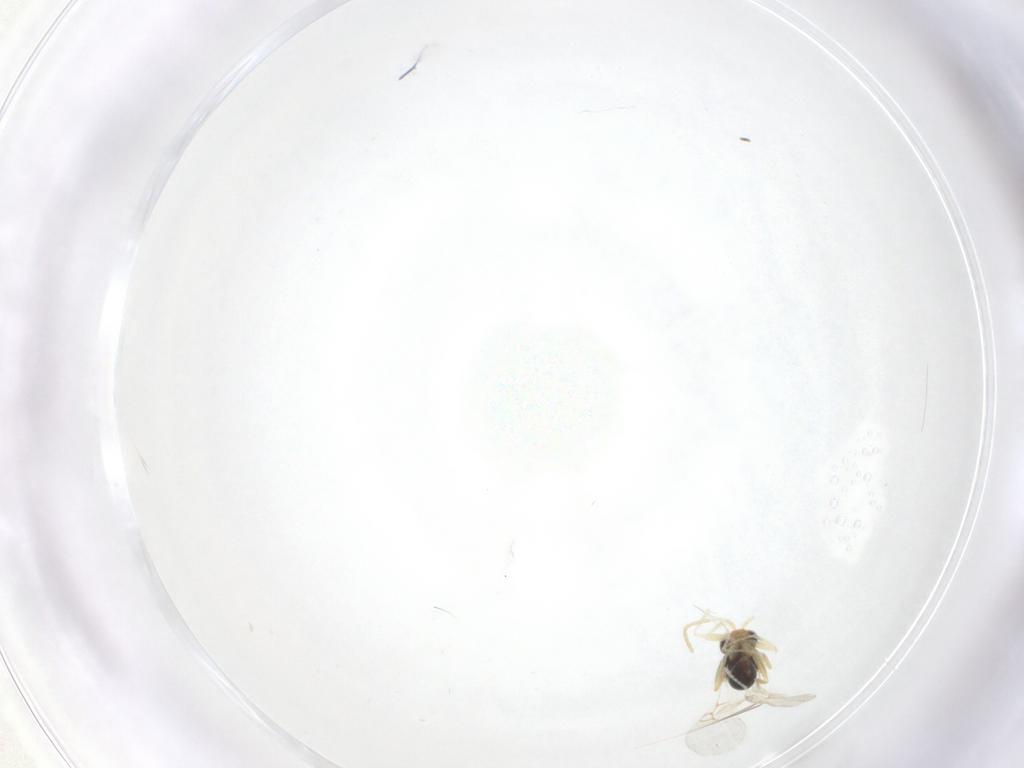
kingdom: Animalia
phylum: Arthropoda
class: Insecta
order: Hymenoptera
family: Figitidae
